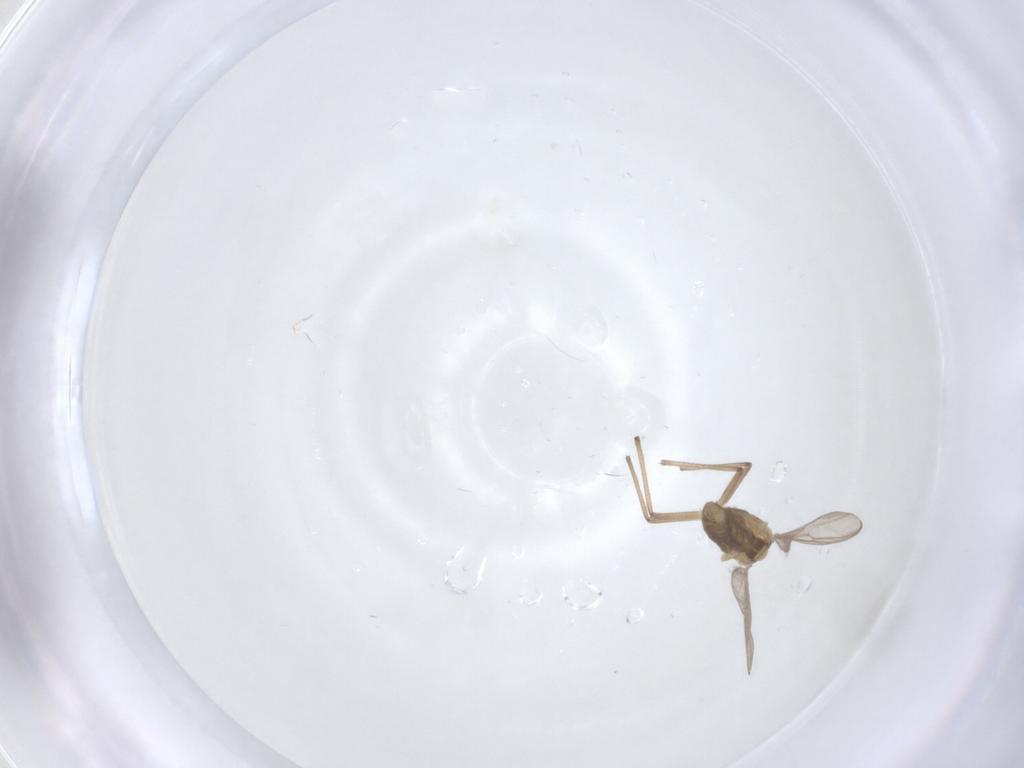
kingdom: Animalia
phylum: Arthropoda
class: Insecta
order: Diptera
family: Chironomidae
